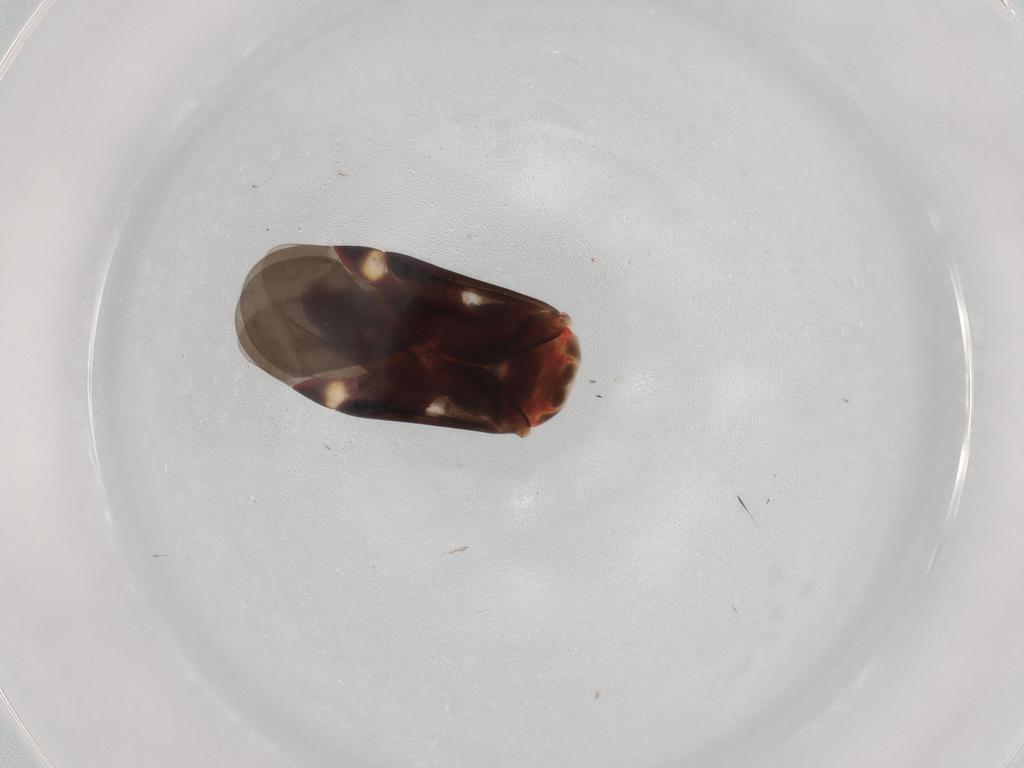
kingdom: Animalia
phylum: Arthropoda
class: Insecta
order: Hemiptera
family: Miridae
